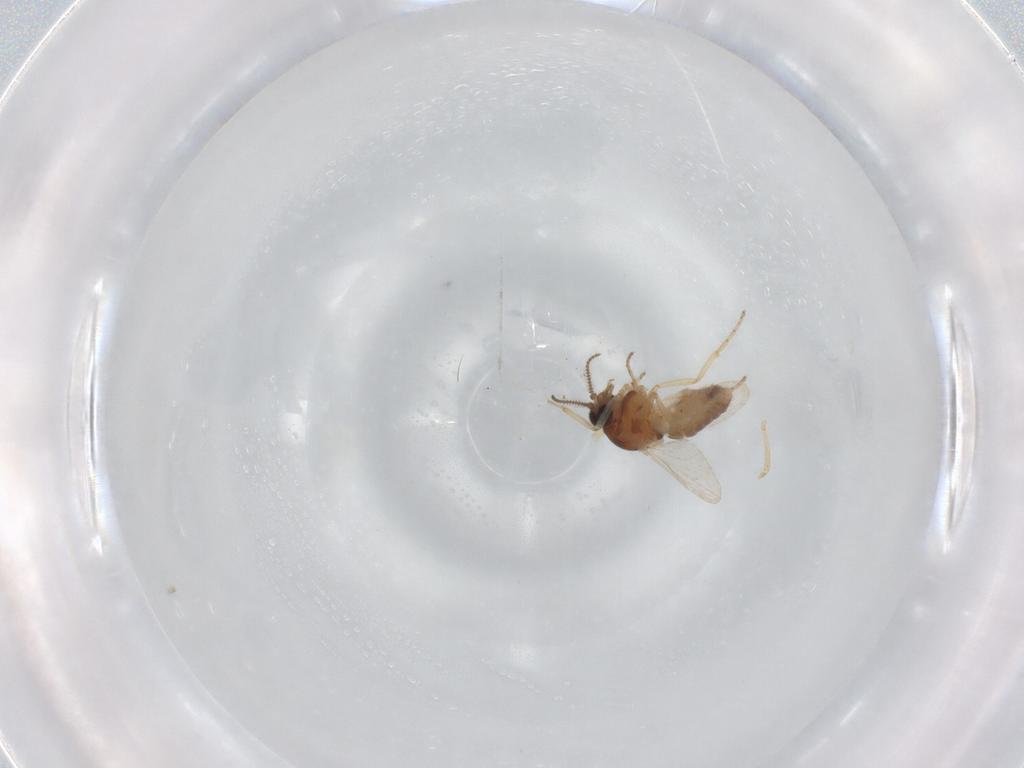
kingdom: Animalia
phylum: Arthropoda
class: Insecta
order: Diptera
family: Ceratopogonidae
